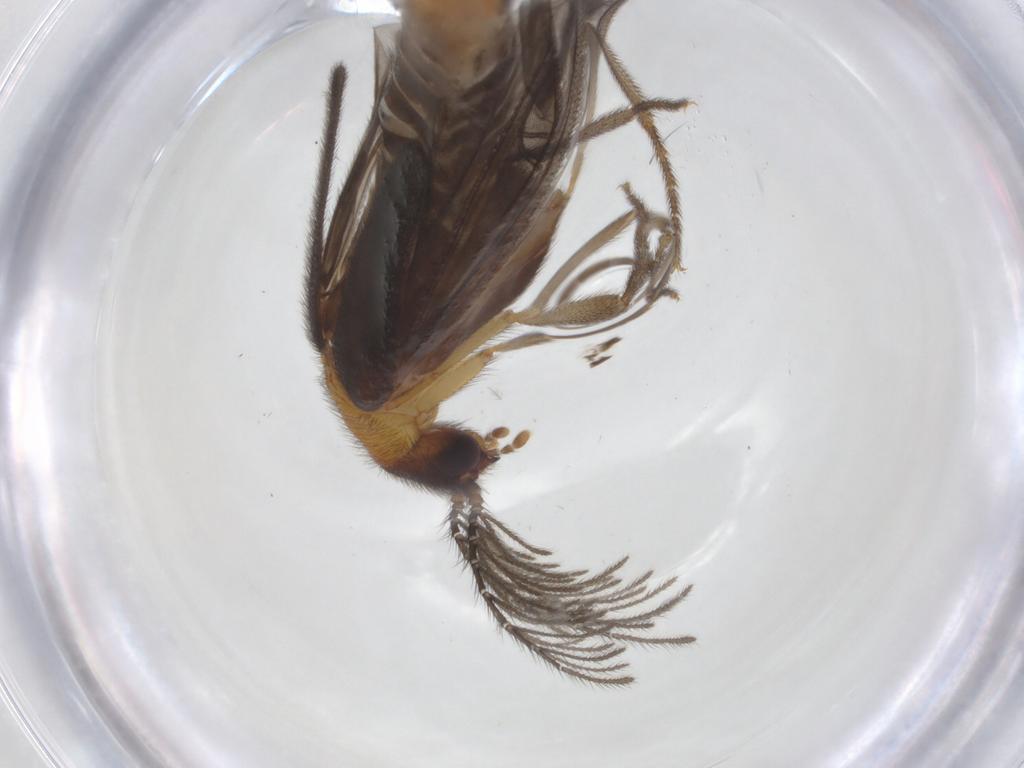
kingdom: Animalia
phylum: Arthropoda
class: Insecta
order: Coleoptera
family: Phengodidae
